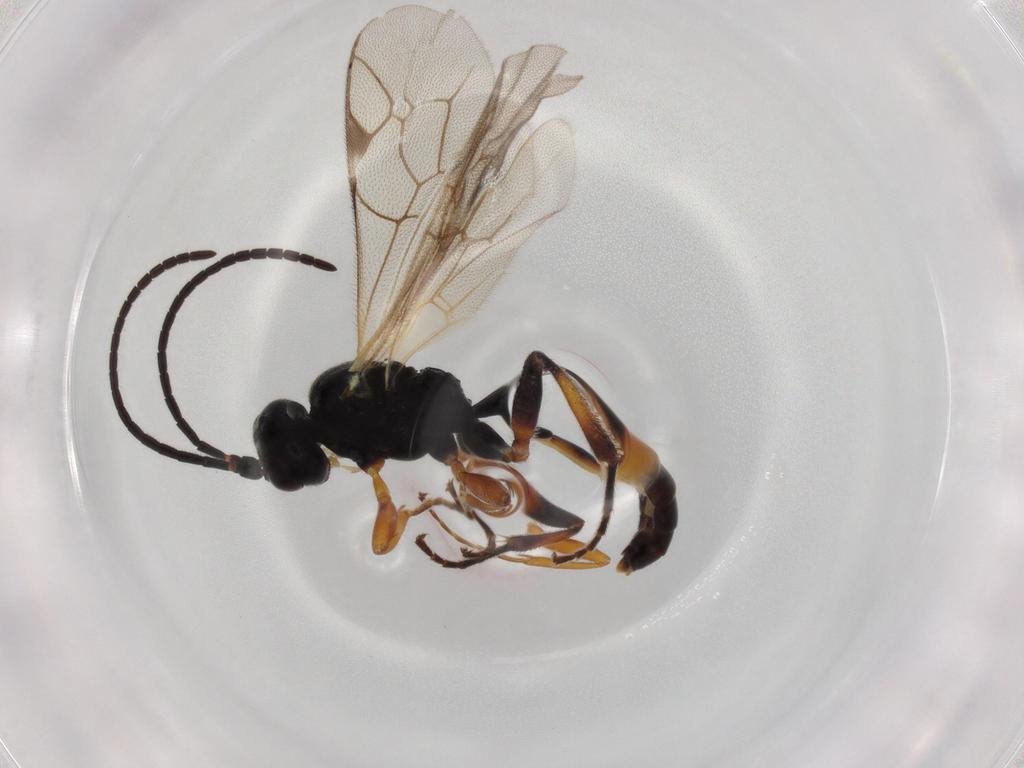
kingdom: Animalia
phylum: Arthropoda
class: Insecta
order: Hymenoptera
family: Ichneumonidae
